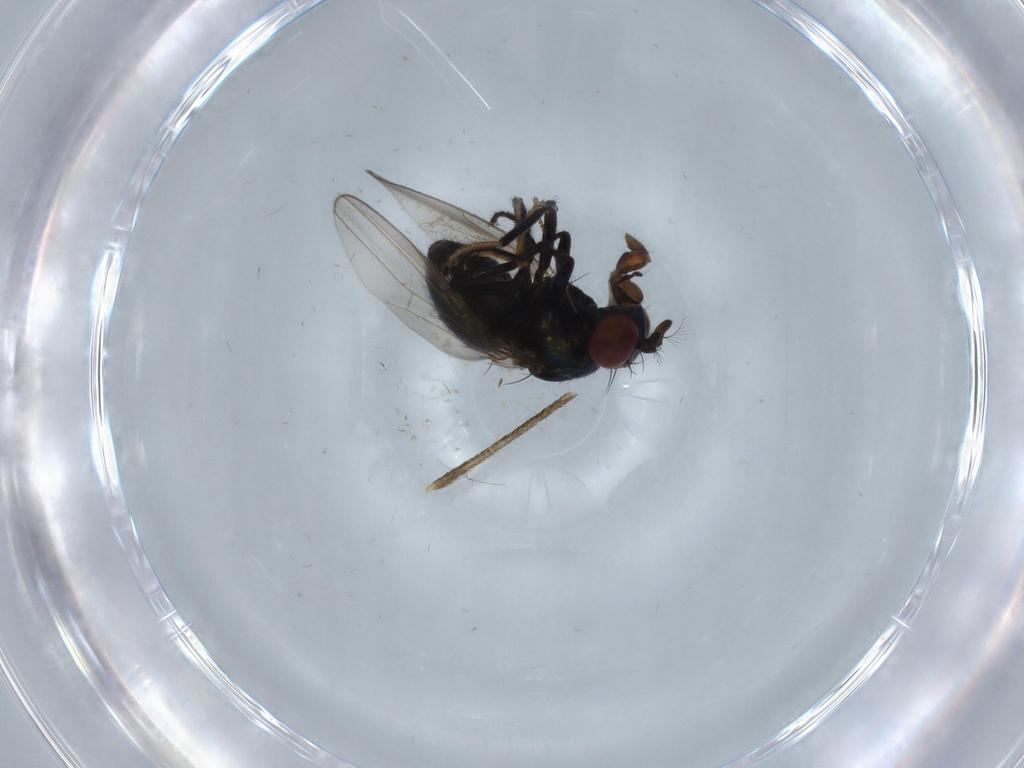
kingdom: Animalia
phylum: Arthropoda
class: Insecta
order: Diptera
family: Culicidae
